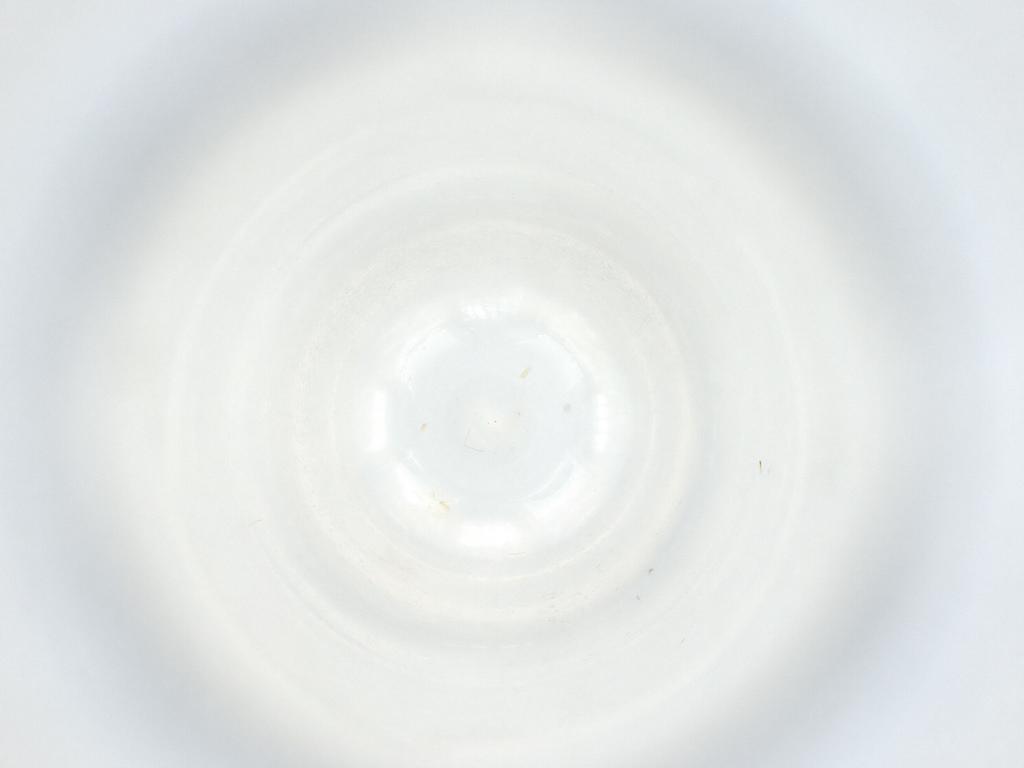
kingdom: Animalia
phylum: Arthropoda
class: Insecta
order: Hymenoptera
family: Trichogrammatidae
